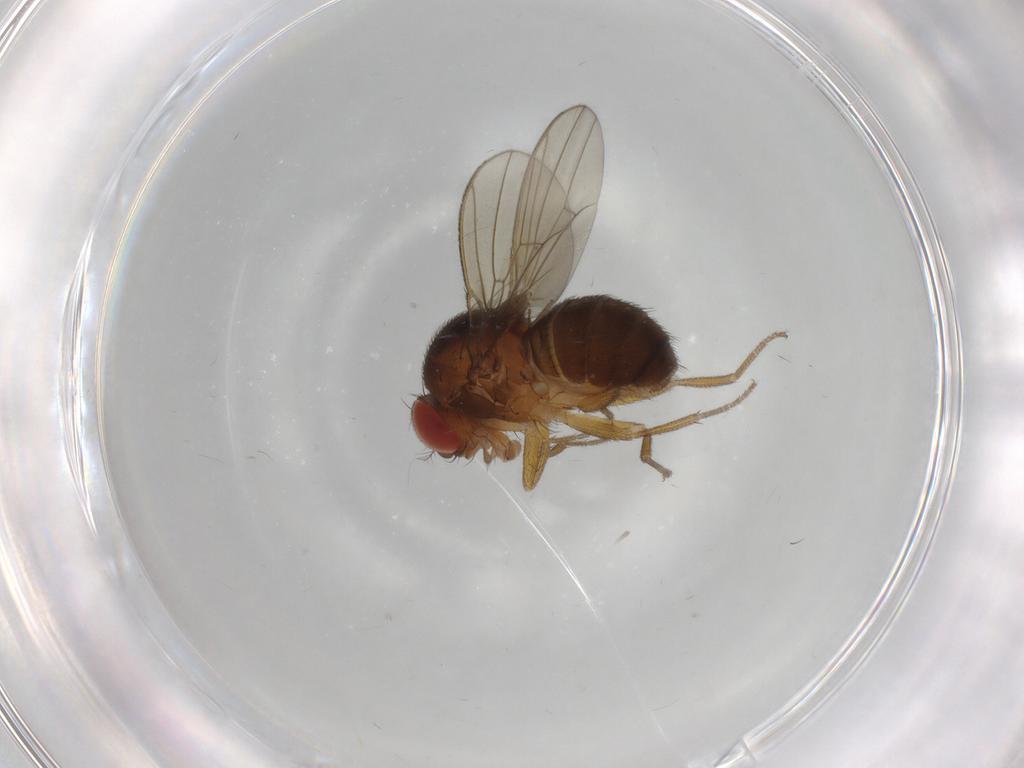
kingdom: Animalia
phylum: Arthropoda
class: Insecta
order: Diptera
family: Drosophilidae
